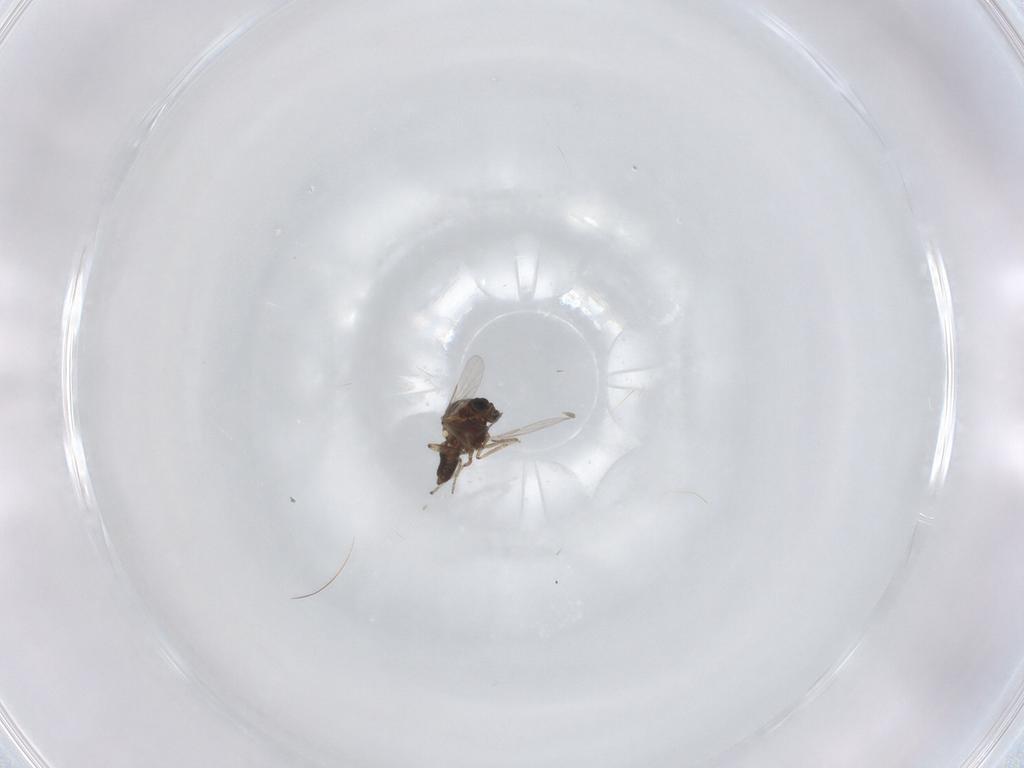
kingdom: Animalia
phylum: Arthropoda
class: Insecta
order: Diptera
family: Ceratopogonidae
